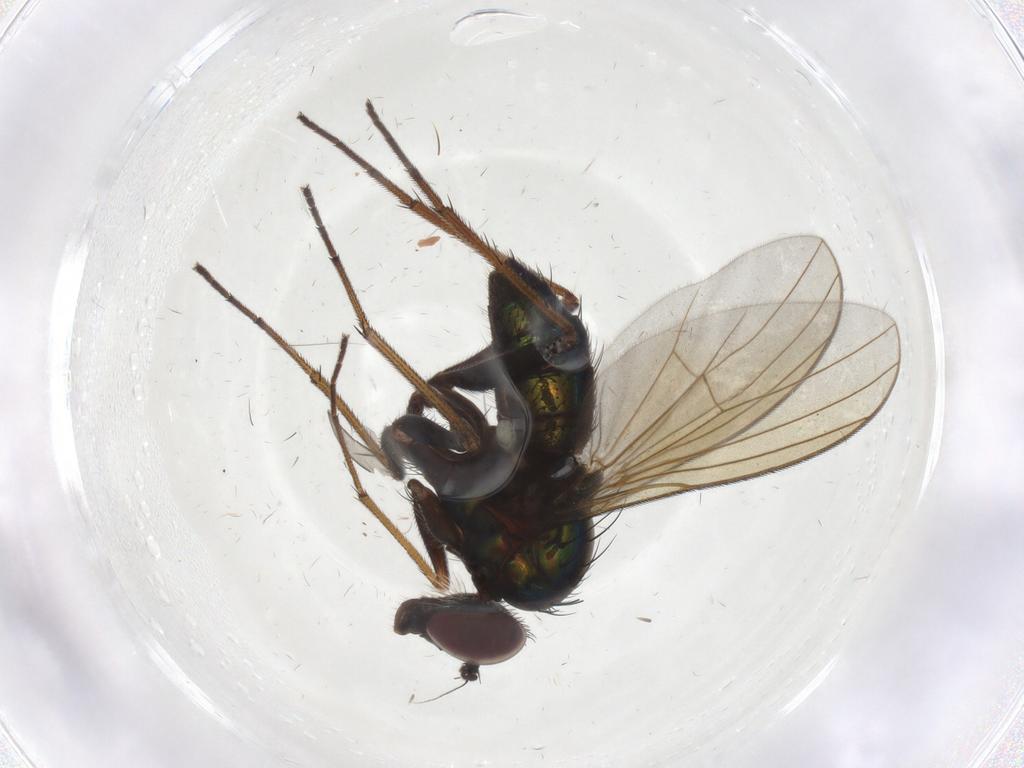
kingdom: Animalia
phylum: Arthropoda
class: Insecta
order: Diptera
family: Dolichopodidae
